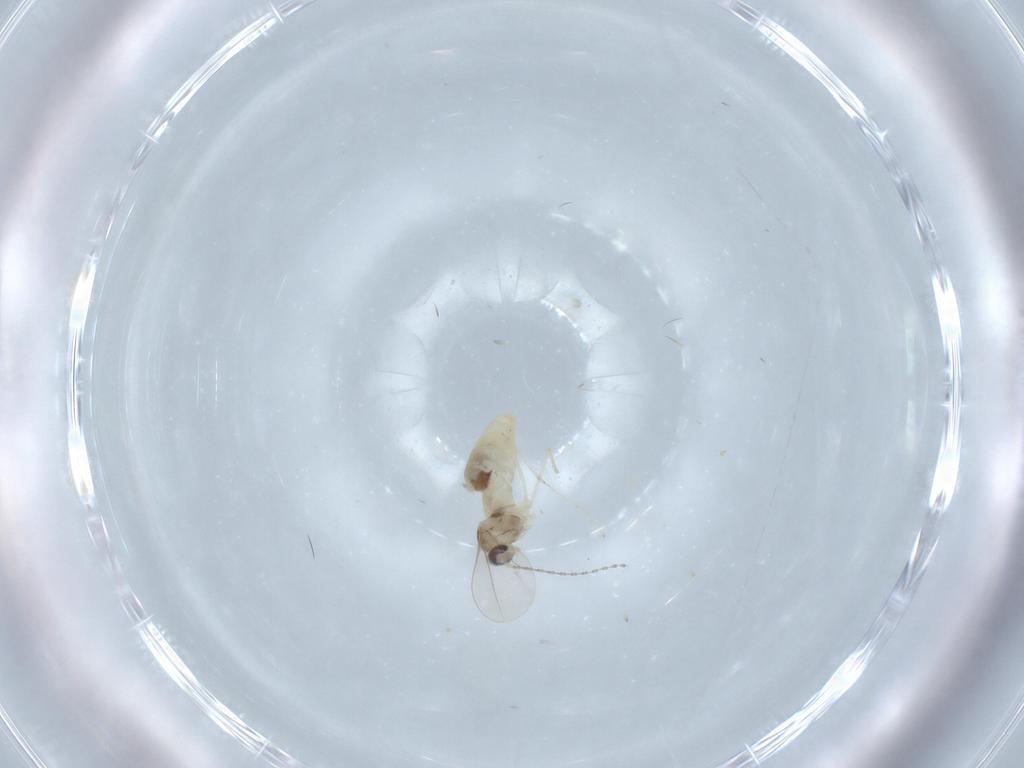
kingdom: Animalia
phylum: Arthropoda
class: Insecta
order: Diptera
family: Cecidomyiidae
